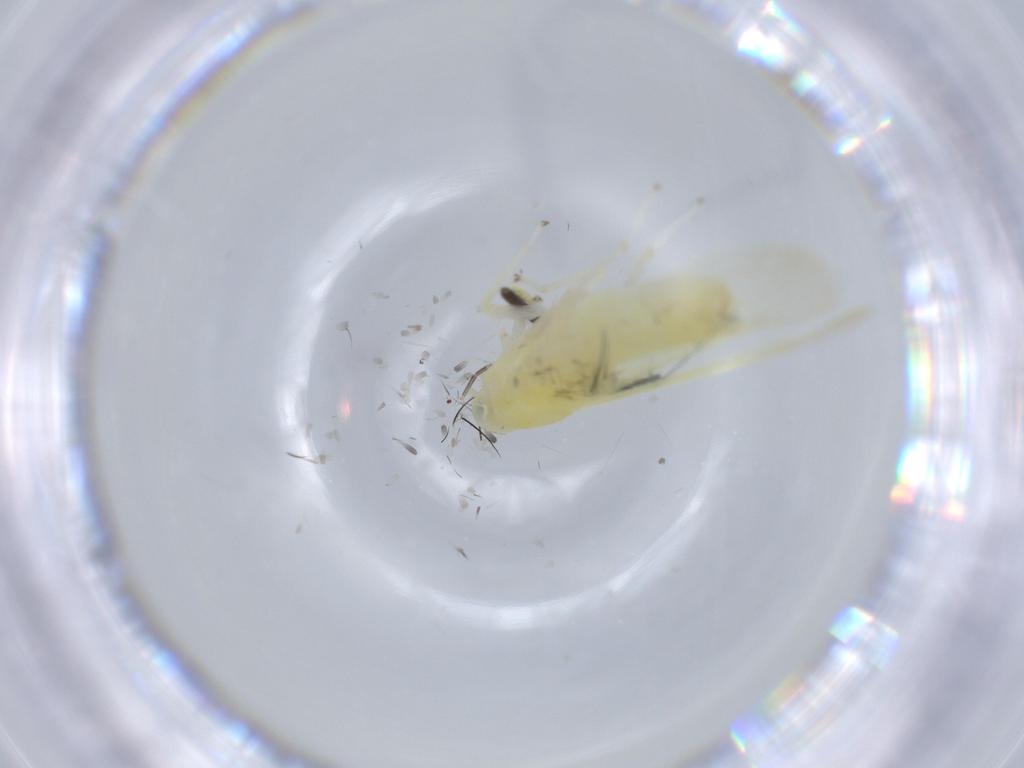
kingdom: Animalia
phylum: Arthropoda
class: Insecta
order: Hemiptera
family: Cicadellidae
